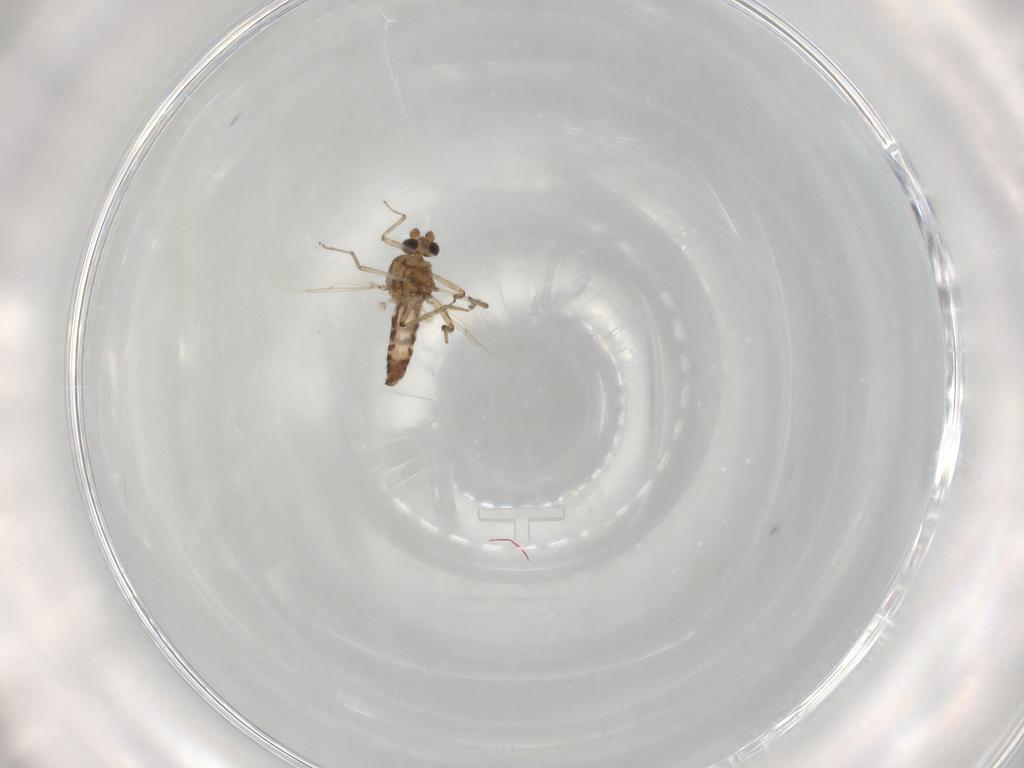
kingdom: Animalia
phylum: Arthropoda
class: Insecta
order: Diptera
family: Ceratopogonidae
